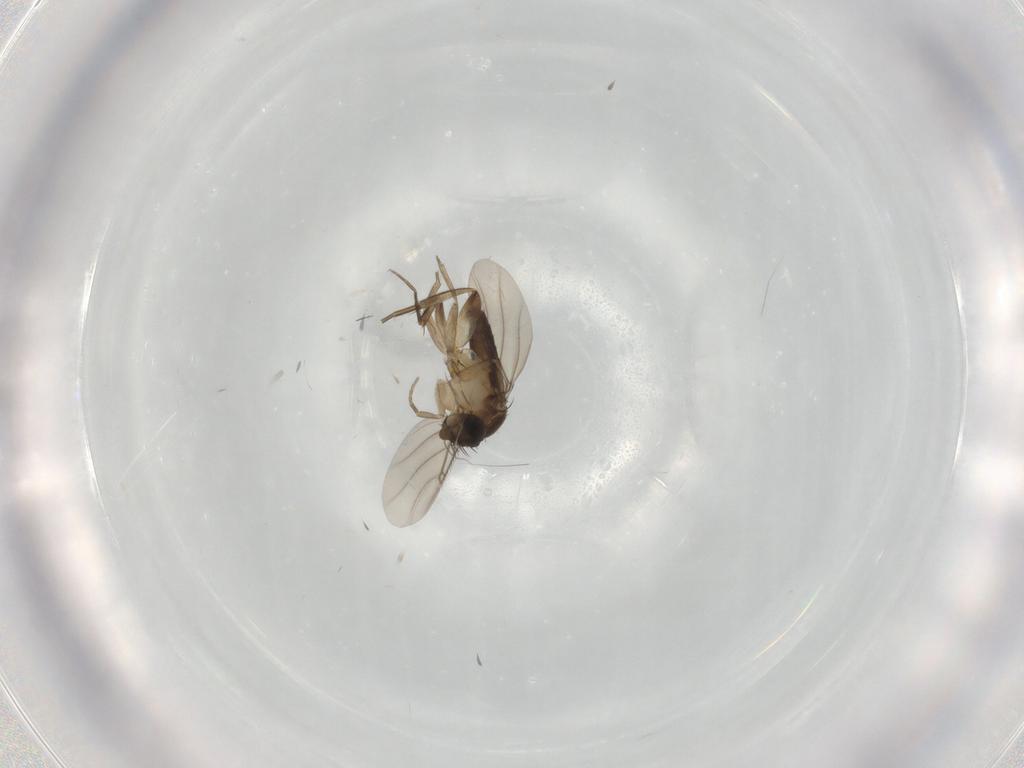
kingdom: Animalia
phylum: Arthropoda
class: Insecta
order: Diptera
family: Phoridae
